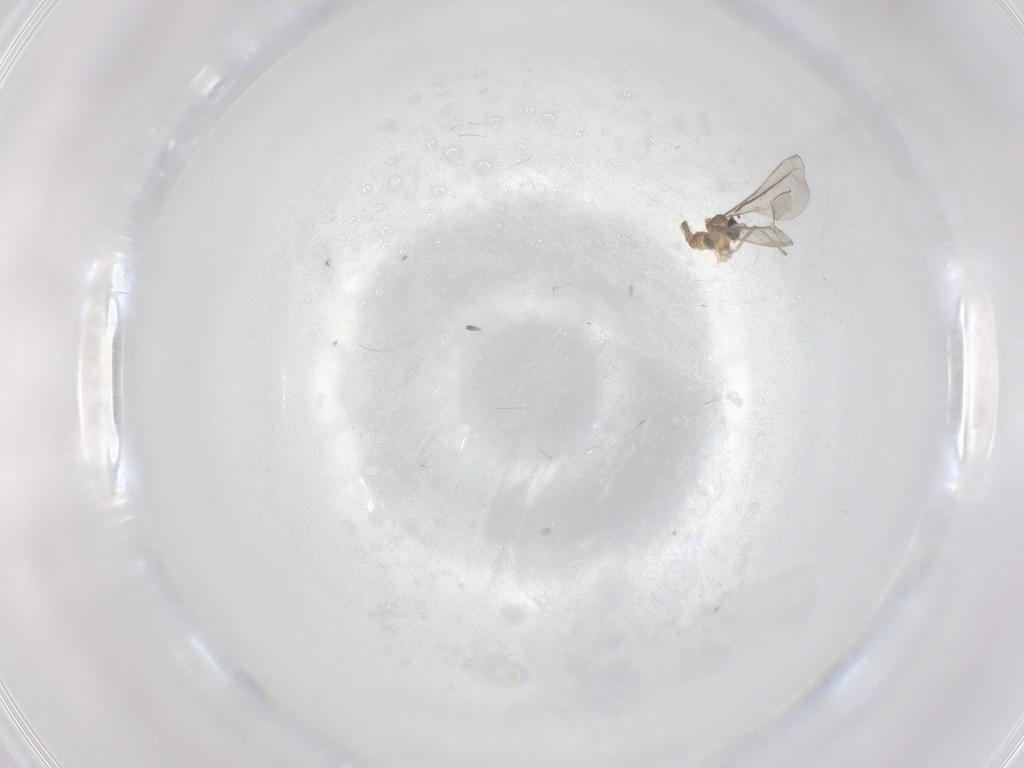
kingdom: Animalia
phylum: Arthropoda
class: Insecta
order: Diptera
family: Cecidomyiidae
